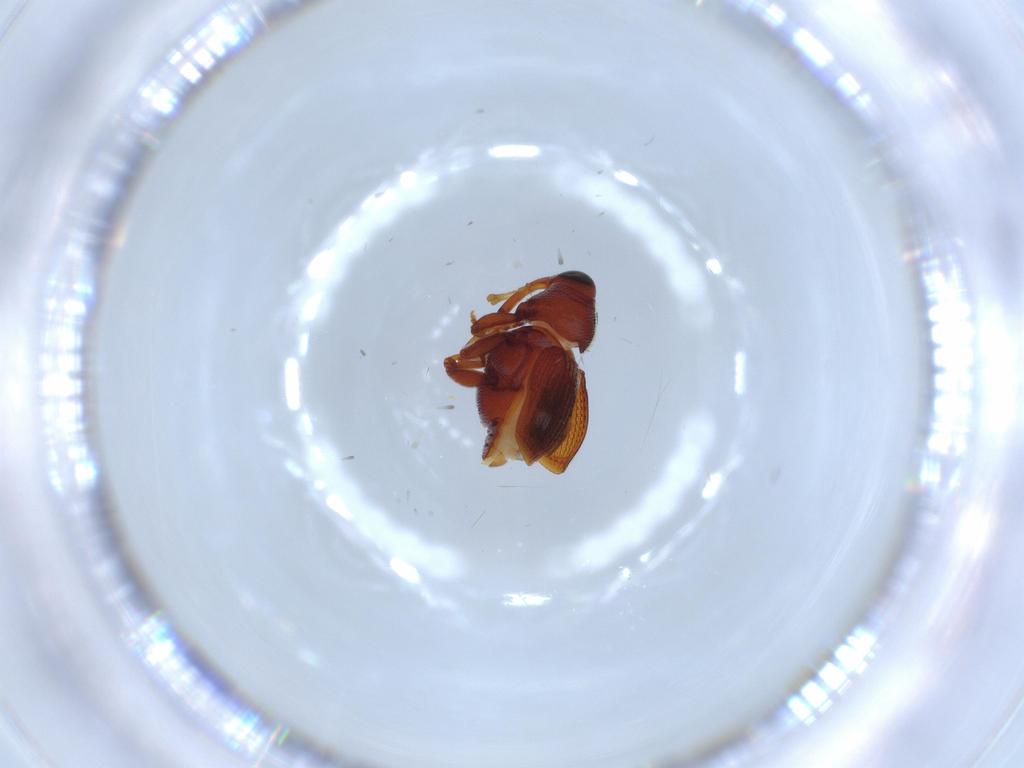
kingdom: Animalia
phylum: Arthropoda
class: Insecta
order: Coleoptera
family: Curculionidae
